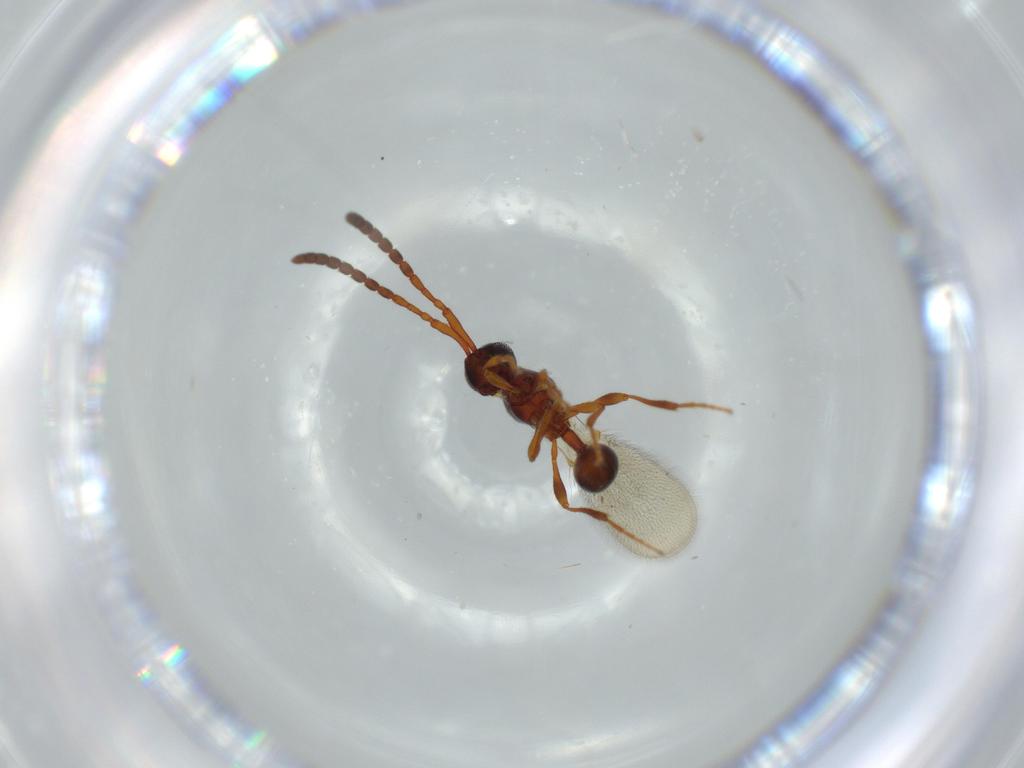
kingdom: Animalia
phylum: Arthropoda
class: Insecta
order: Hymenoptera
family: Diapriidae
